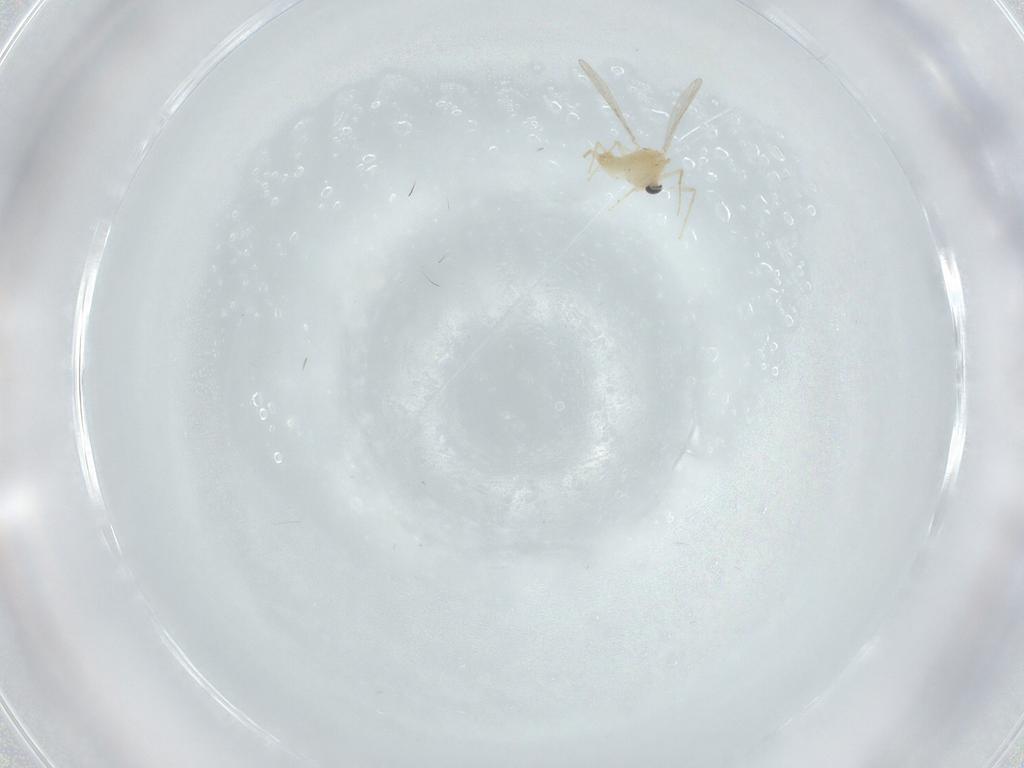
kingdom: Animalia
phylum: Arthropoda
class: Insecta
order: Diptera
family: Chironomidae
